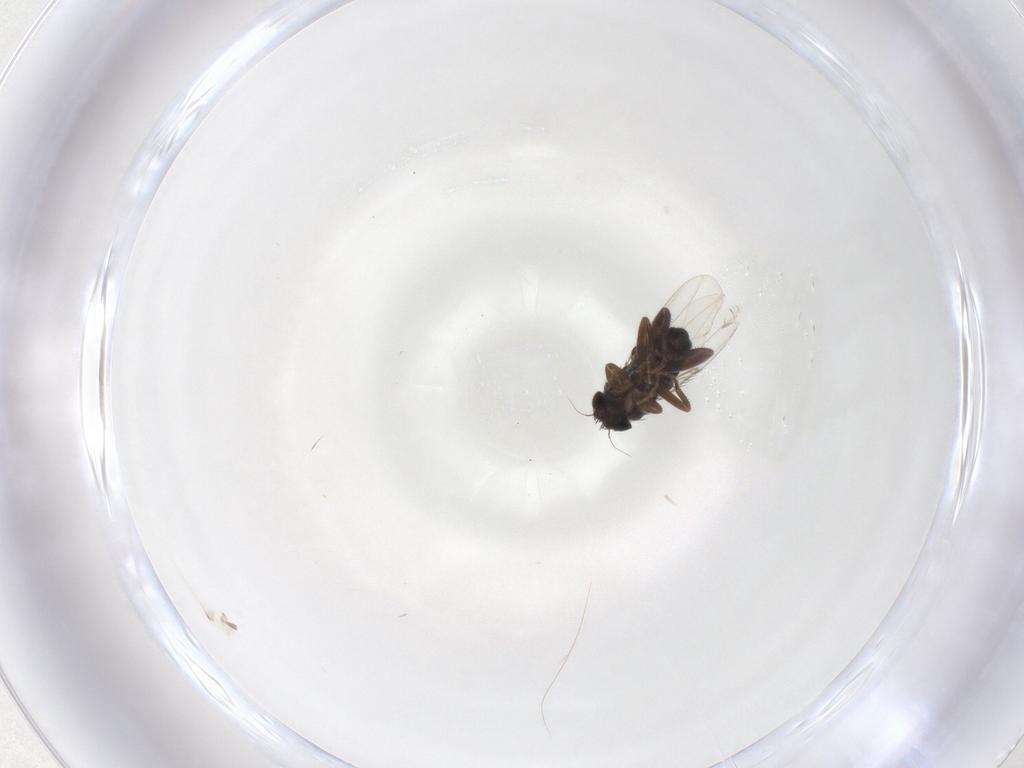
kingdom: Animalia
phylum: Arthropoda
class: Insecta
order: Diptera
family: Phoridae
